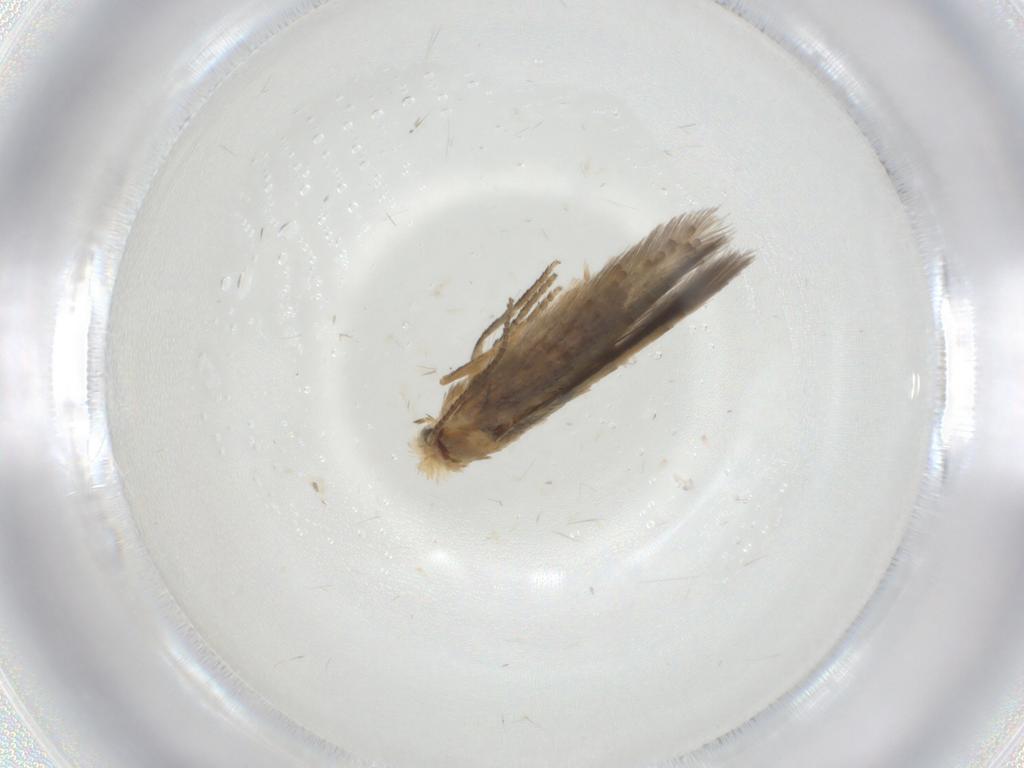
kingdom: Animalia
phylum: Arthropoda
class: Insecta
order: Lepidoptera
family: Nepticulidae
